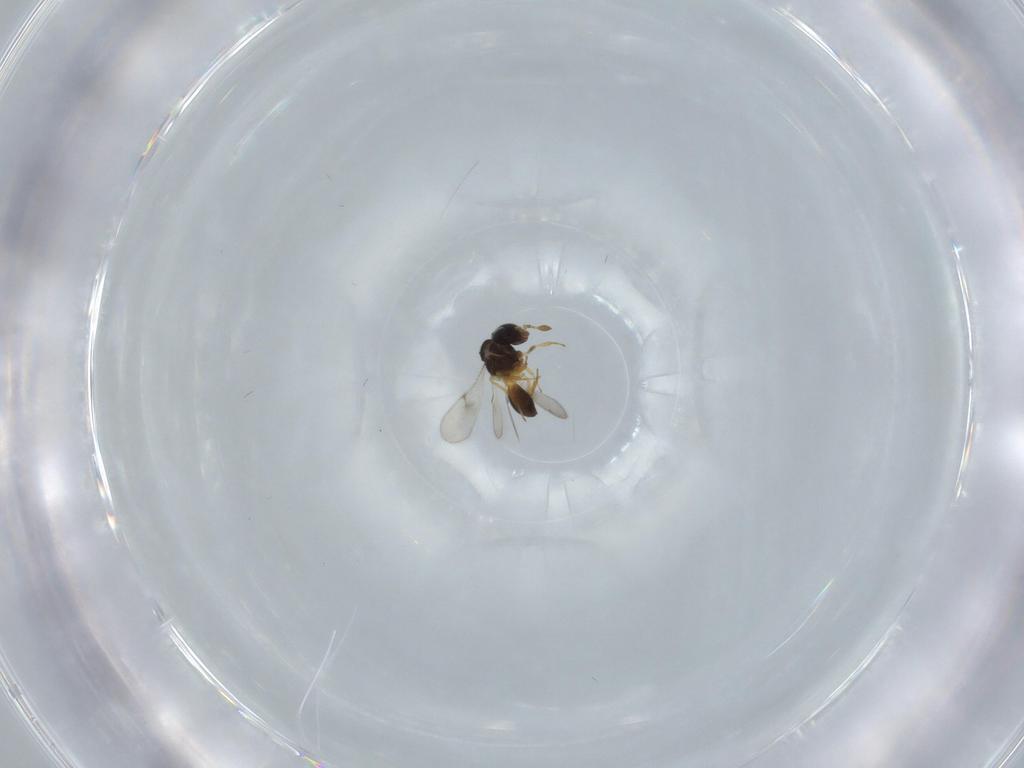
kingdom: Animalia
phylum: Arthropoda
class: Insecta
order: Hymenoptera
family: Scelionidae
